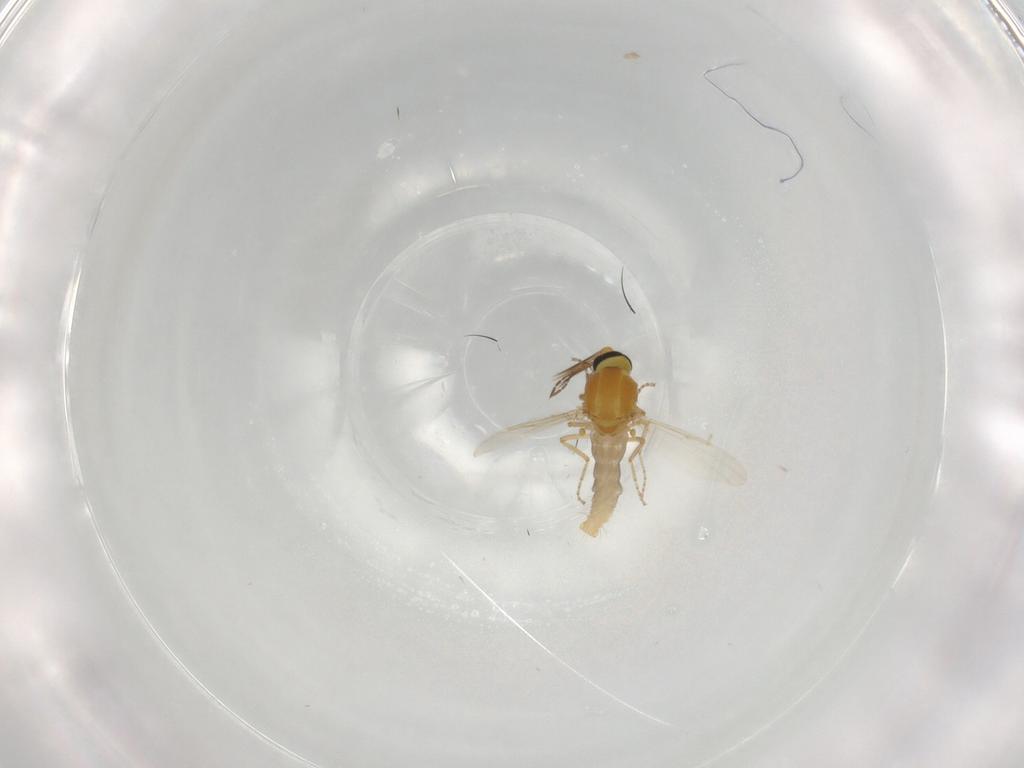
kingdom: Animalia
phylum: Arthropoda
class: Insecta
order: Diptera
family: Ceratopogonidae
